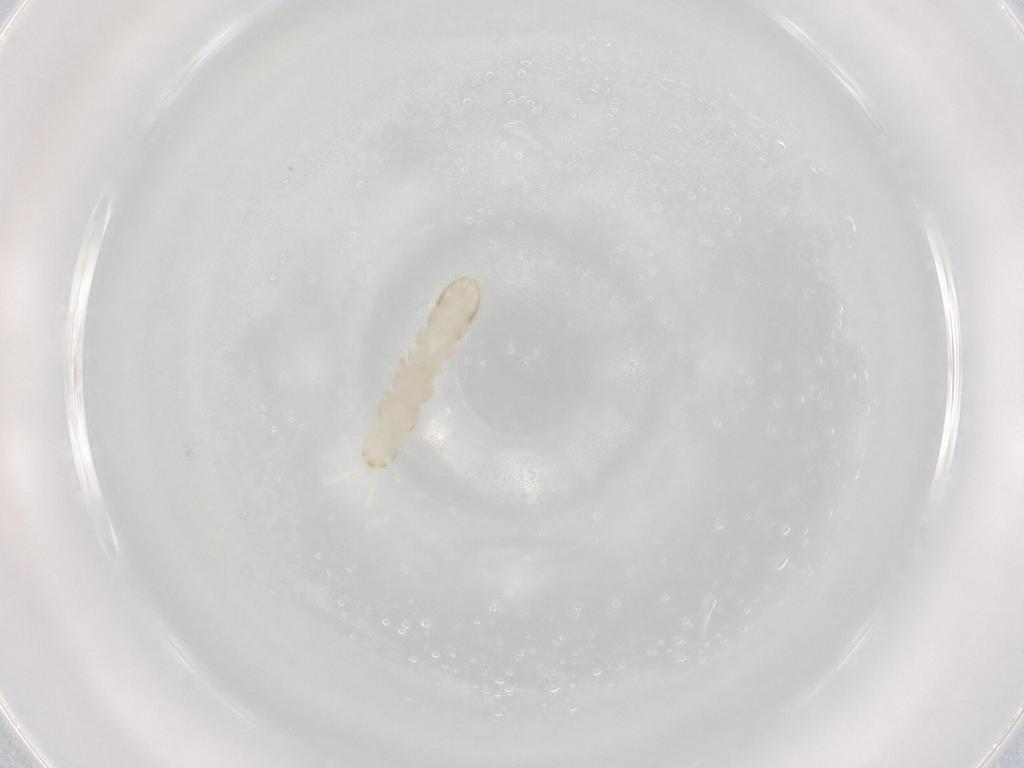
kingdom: Animalia
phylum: Arthropoda
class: Collembola
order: Entomobryomorpha
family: Isotomidae
